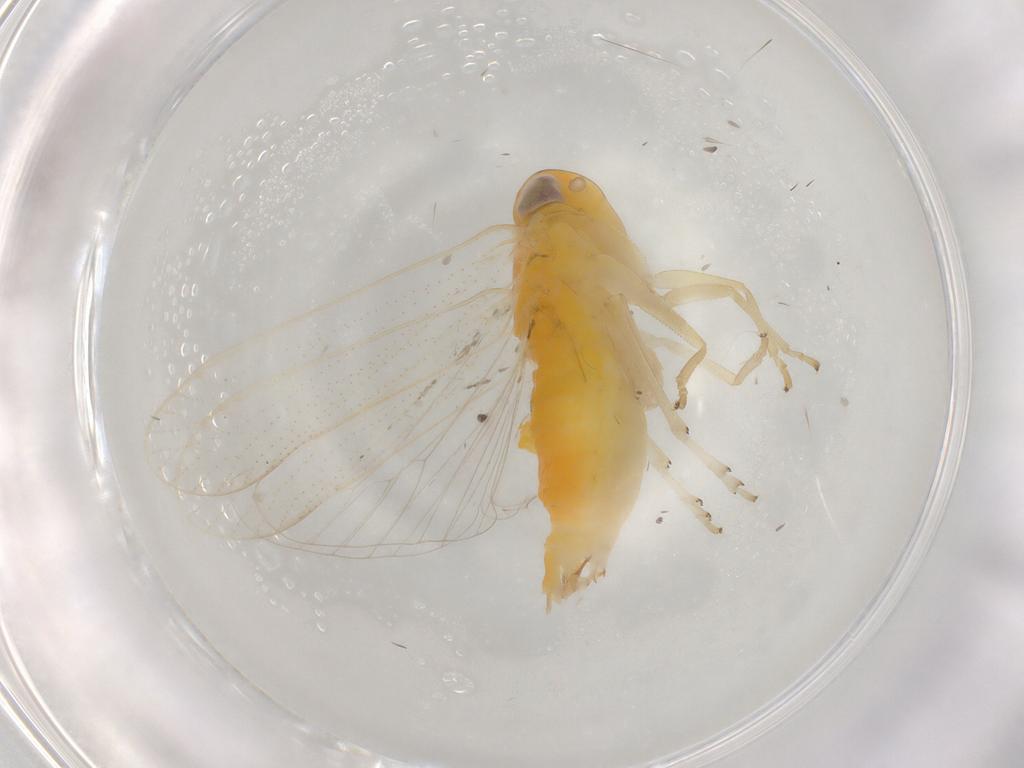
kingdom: Animalia
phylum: Arthropoda
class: Insecta
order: Hemiptera
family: Cixiidae
